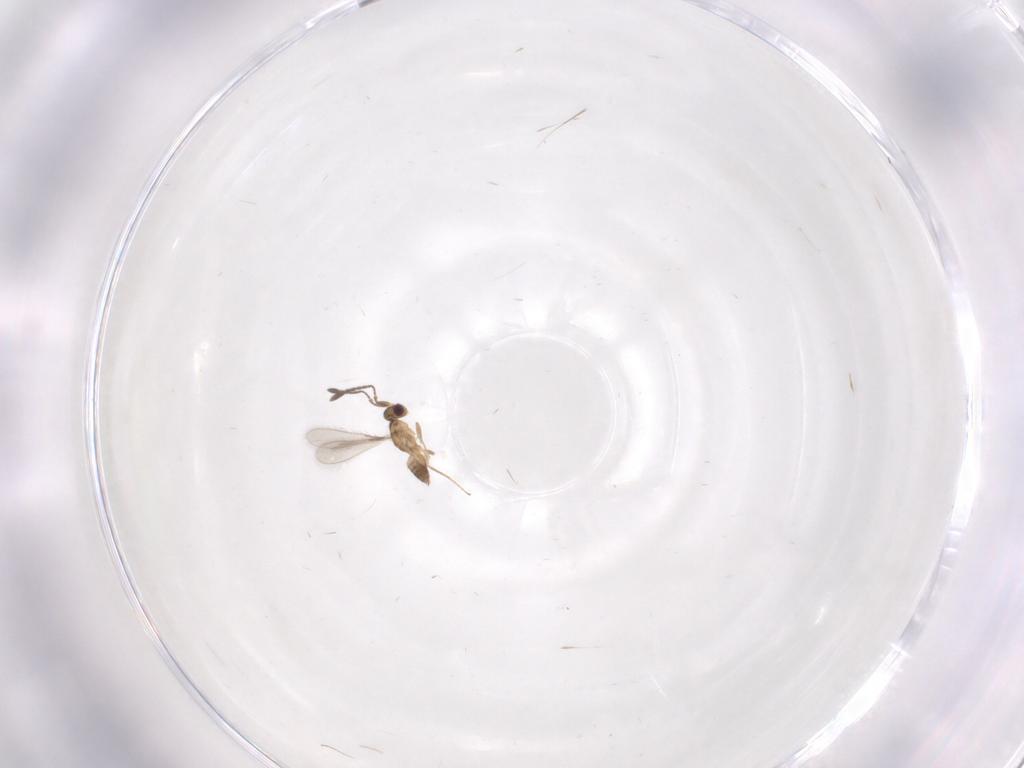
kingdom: Animalia
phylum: Arthropoda
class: Insecta
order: Hymenoptera
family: Mymaridae
